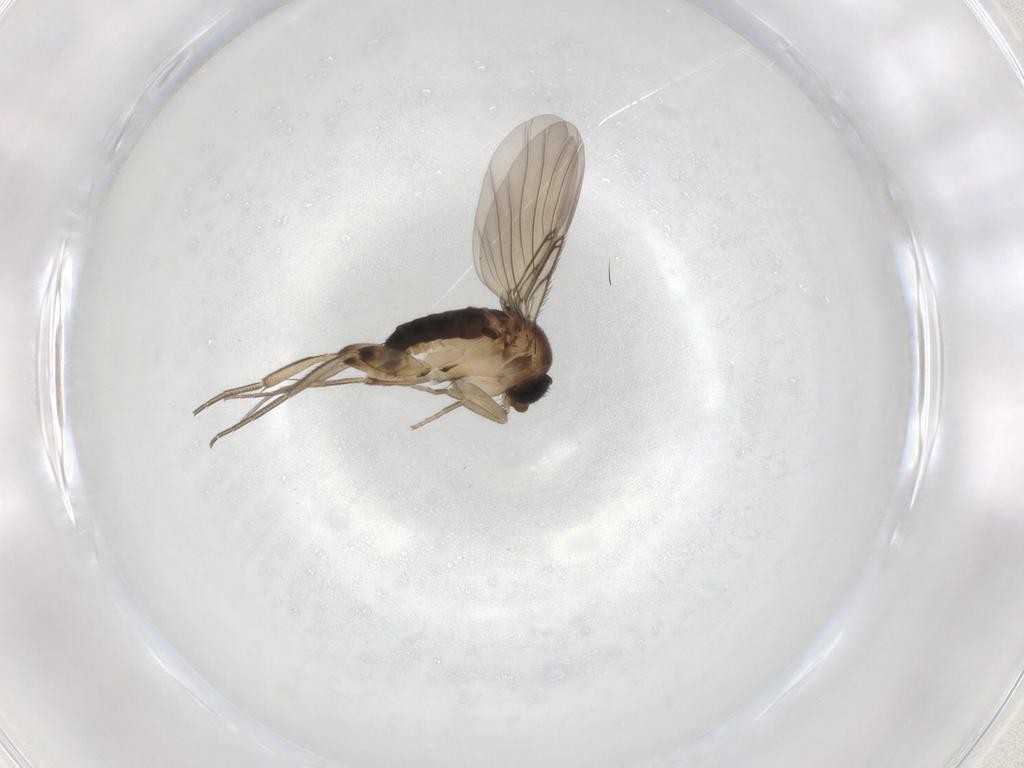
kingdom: Animalia
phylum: Arthropoda
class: Insecta
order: Diptera
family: Phoridae
